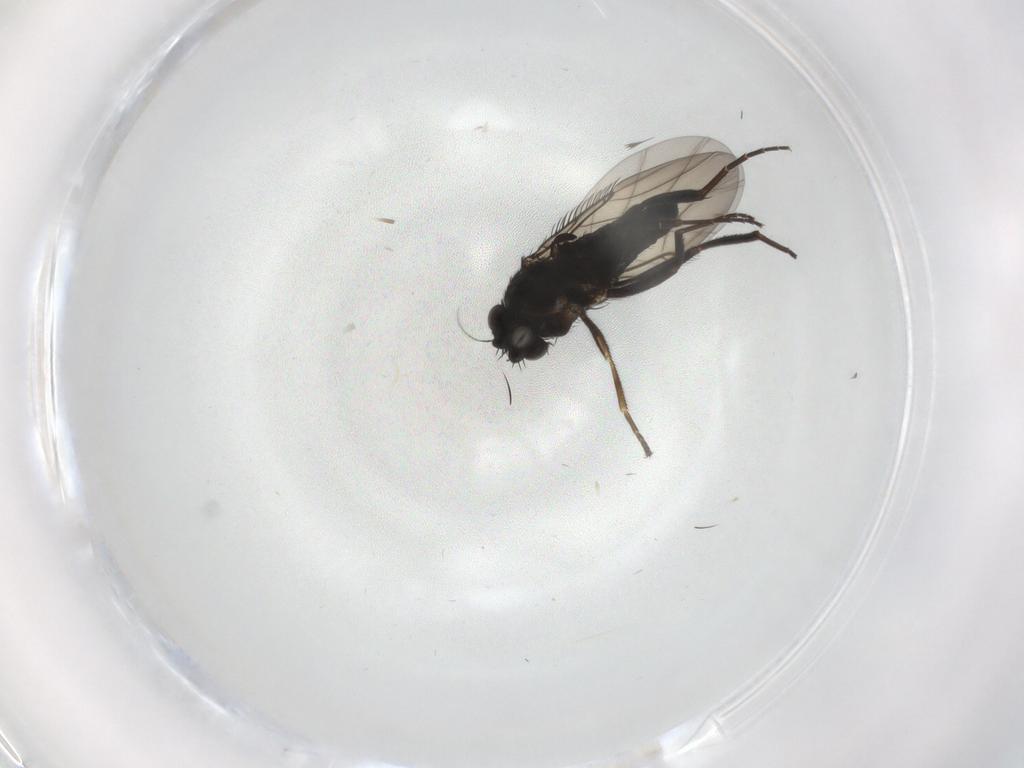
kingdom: Animalia
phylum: Arthropoda
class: Insecta
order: Diptera
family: Phoridae
